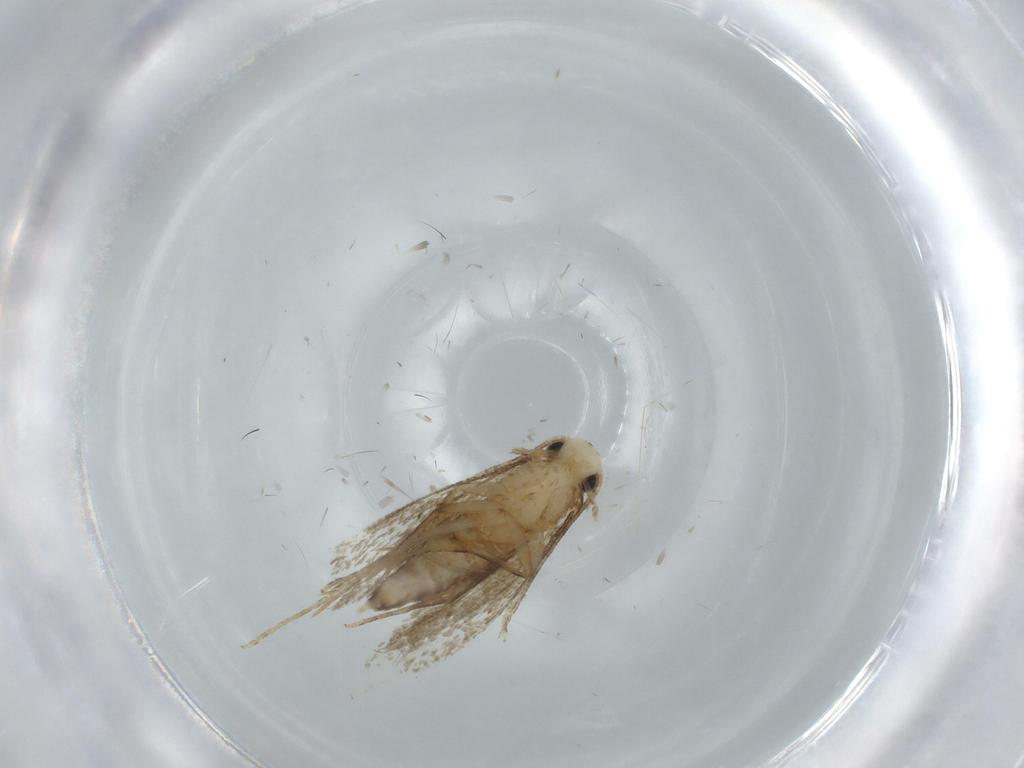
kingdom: Animalia
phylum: Arthropoda
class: Insecta
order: Lepidoptera
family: Tineidae
